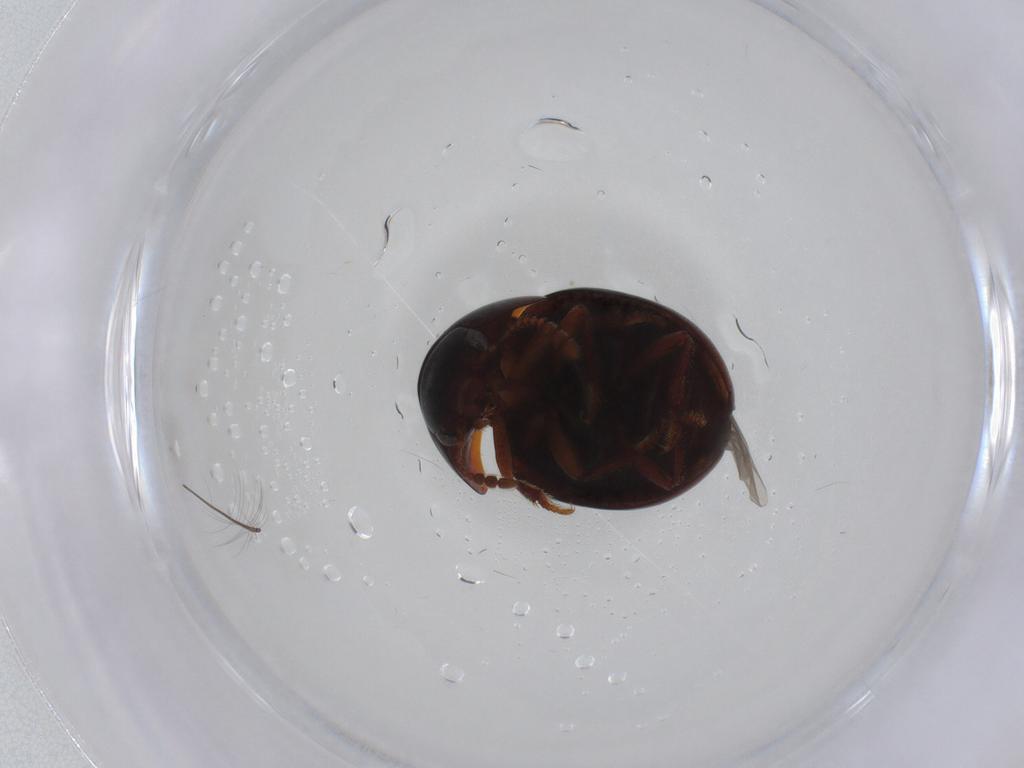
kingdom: Animalia
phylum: Arthropoda
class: Insecta
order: Coleoptera
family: Leiodidae
